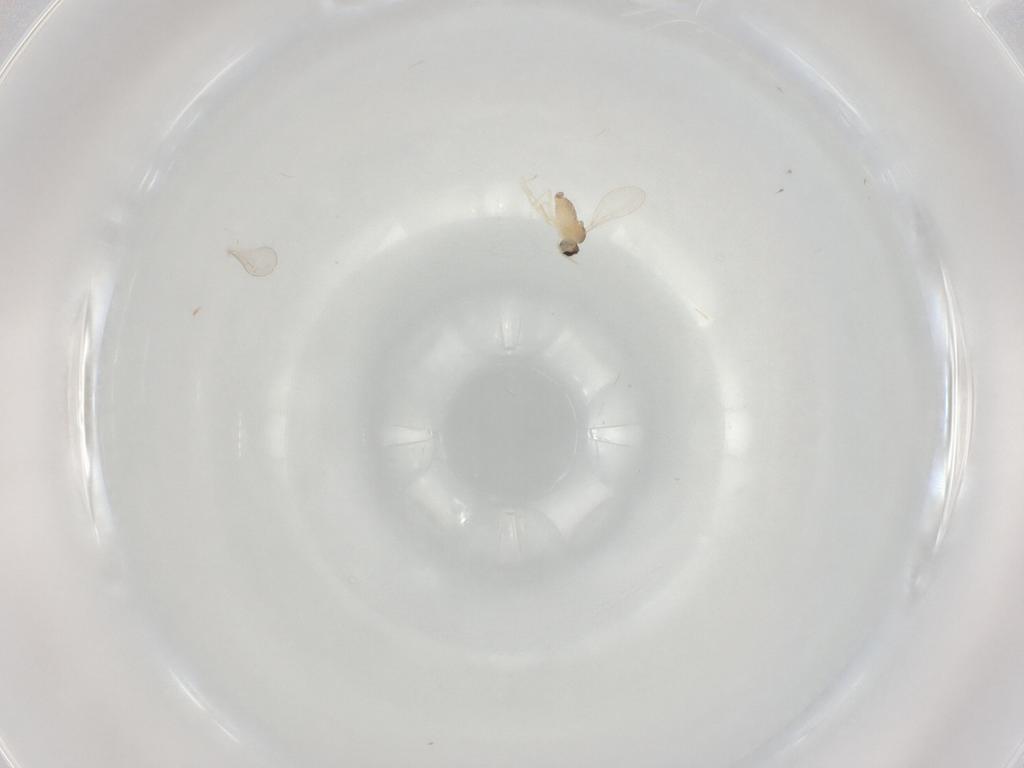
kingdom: Animalia
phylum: Arthropoda
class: Insecta
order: Diptera
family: Cecidomyiidae
